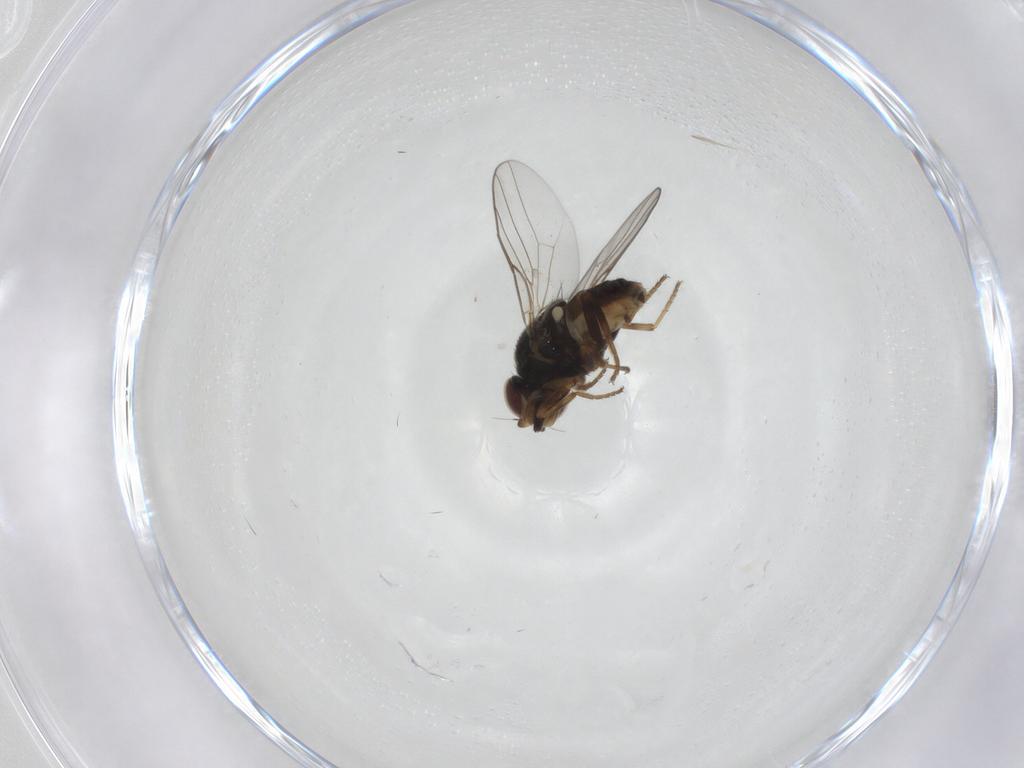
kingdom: Animalia
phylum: Arthropoda
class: Insecta
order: Diptera
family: Chloropidae
